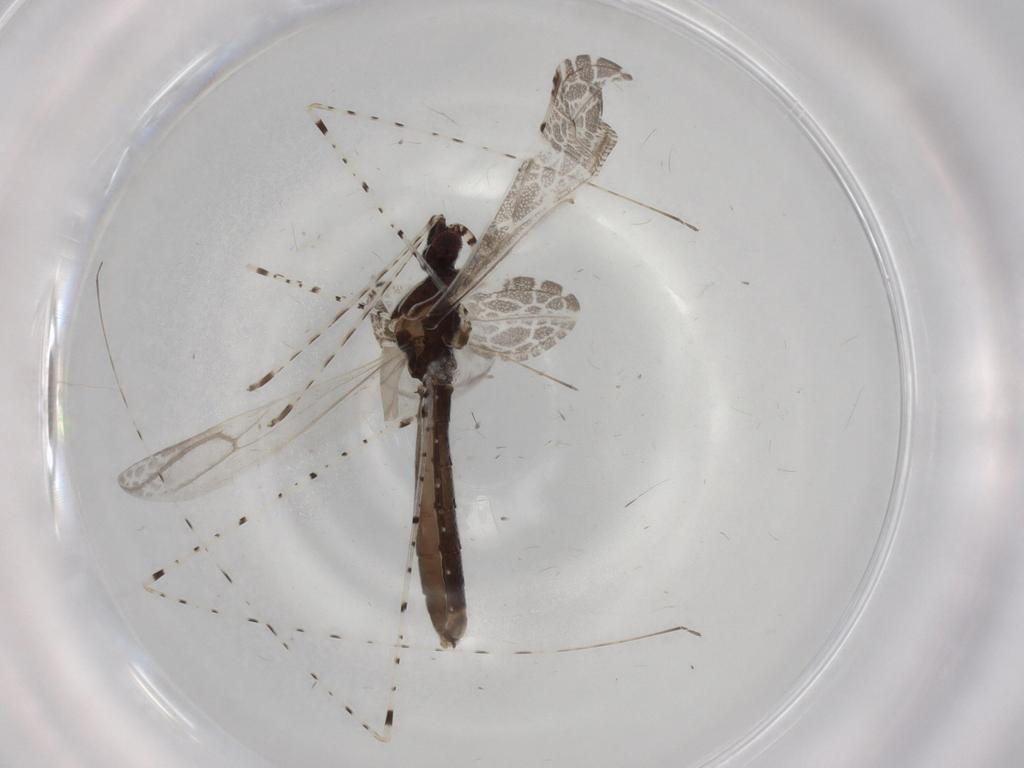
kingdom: Animalia
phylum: Arthropoda
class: Insecta
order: Hemiptera
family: Reduviidae
